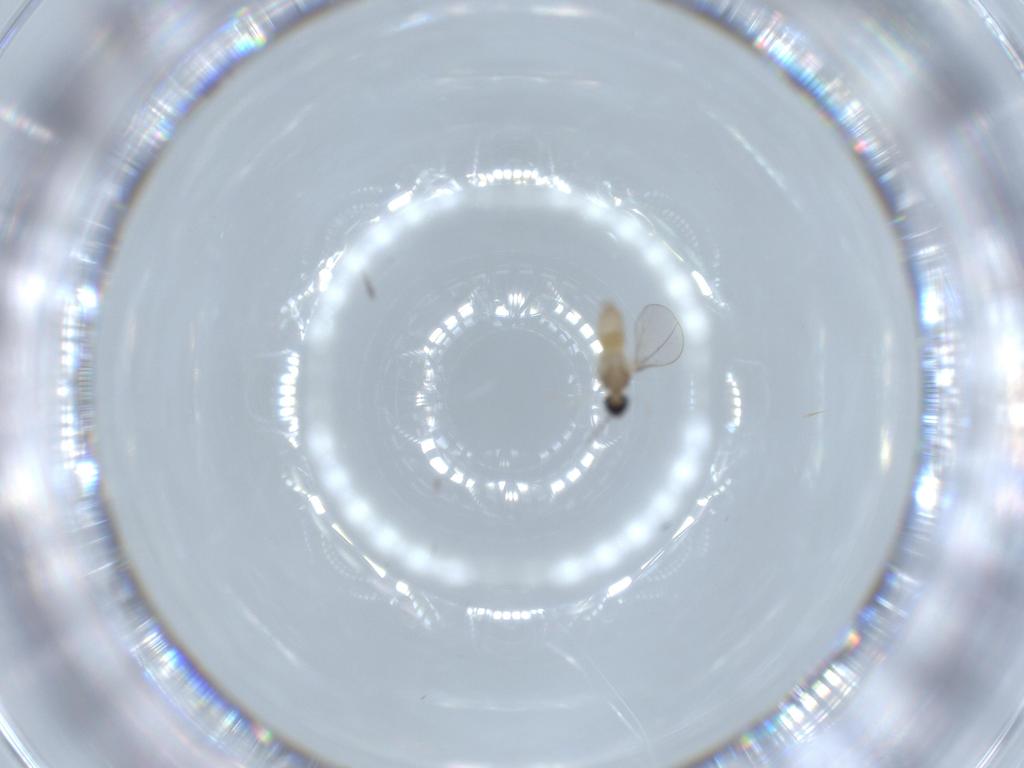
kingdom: Animalia
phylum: Arthropoda
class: Insecta
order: Diptera
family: Cecidomyiidae
